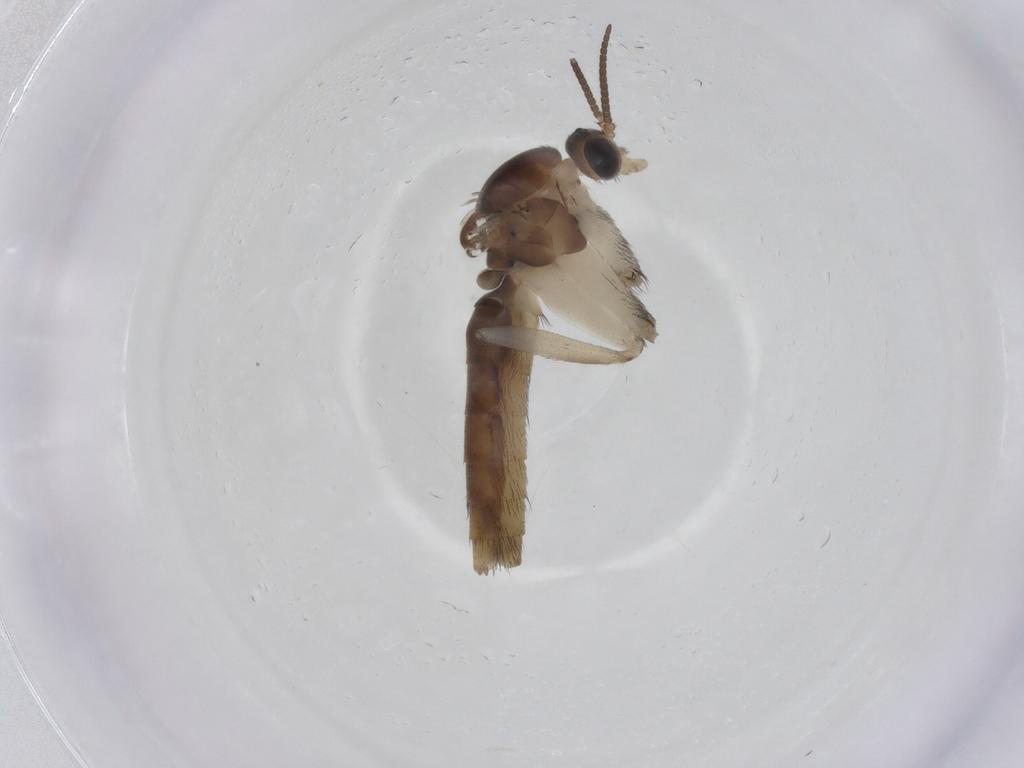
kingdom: Animalia
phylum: Arthropoda
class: Insecta
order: Diptera
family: Keroplatidae
